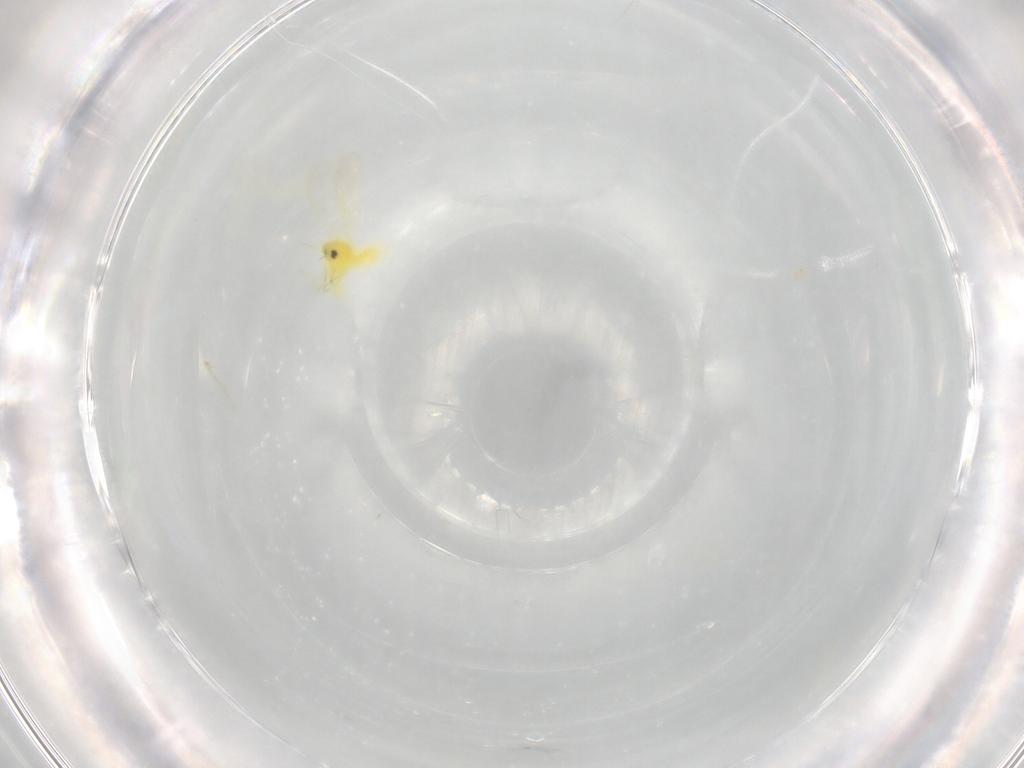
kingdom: Animalia
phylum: Arthropoda
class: Insecta
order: Hemiptera
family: Aleyrodidae
